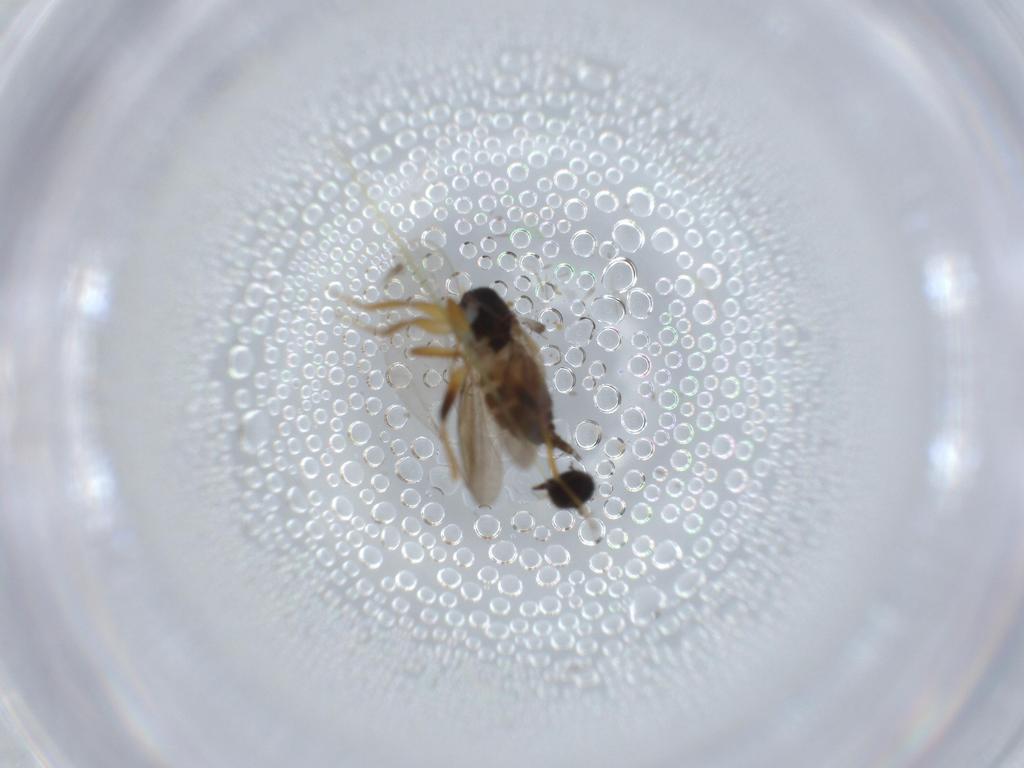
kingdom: Animalia
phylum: Arthropoda
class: Insecta
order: Diptera
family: Hybotidae
